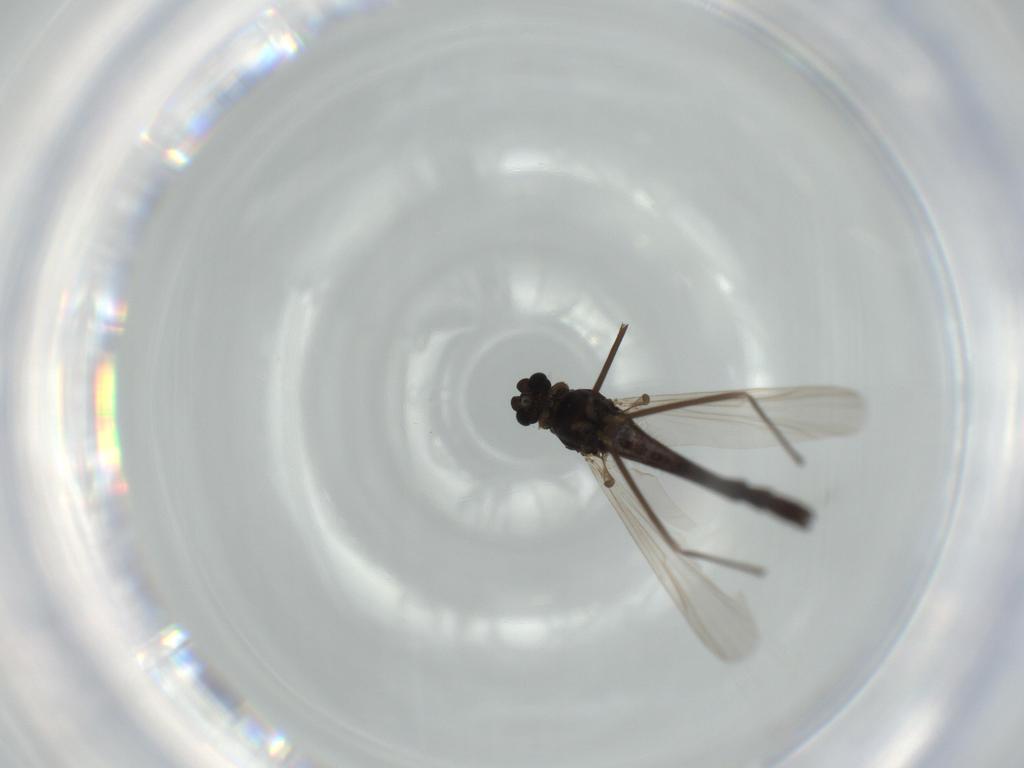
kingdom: Animalia
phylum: Arthropoda
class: Insecta
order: Diptera
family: Chironomidae
